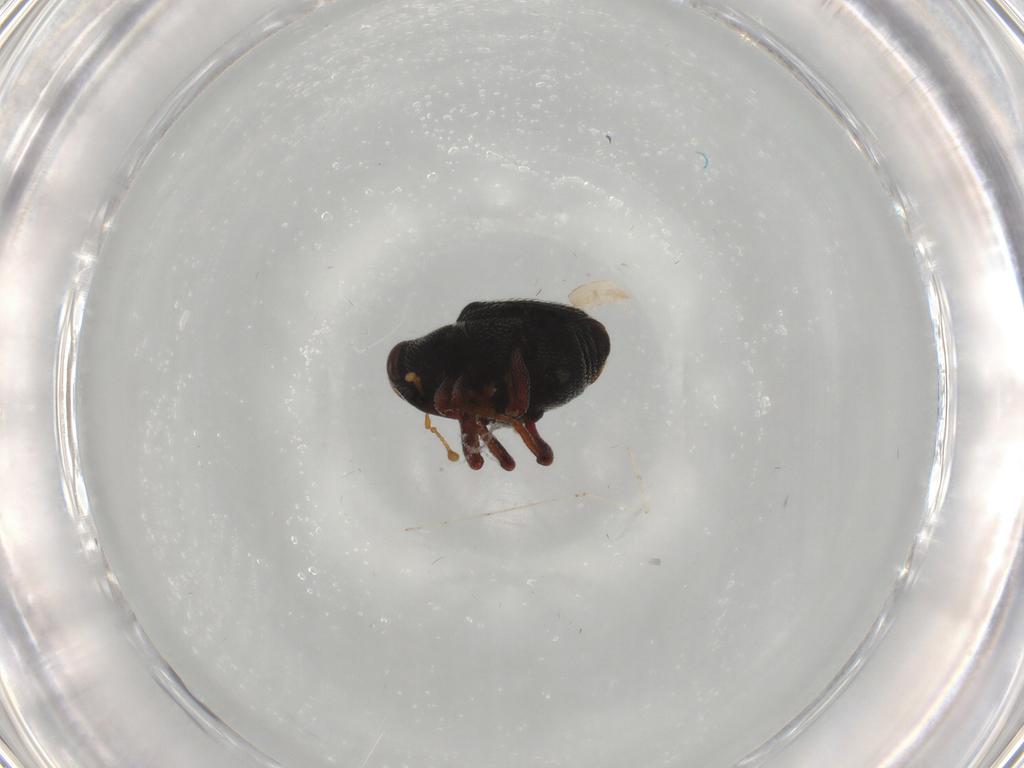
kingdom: Animalia
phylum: Arthropoda
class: Insecta
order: Coleoptera
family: Curculionidae
